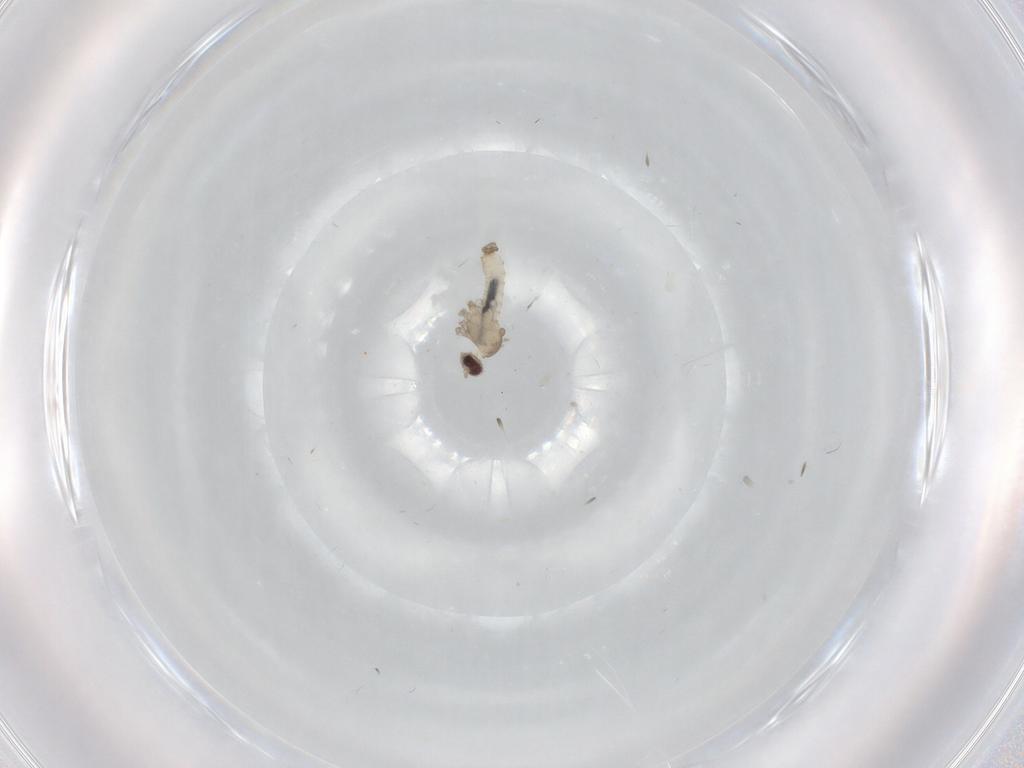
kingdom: Animalia
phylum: Arthropoda
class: Insecta
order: Diptera
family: Cecidomyiidae
